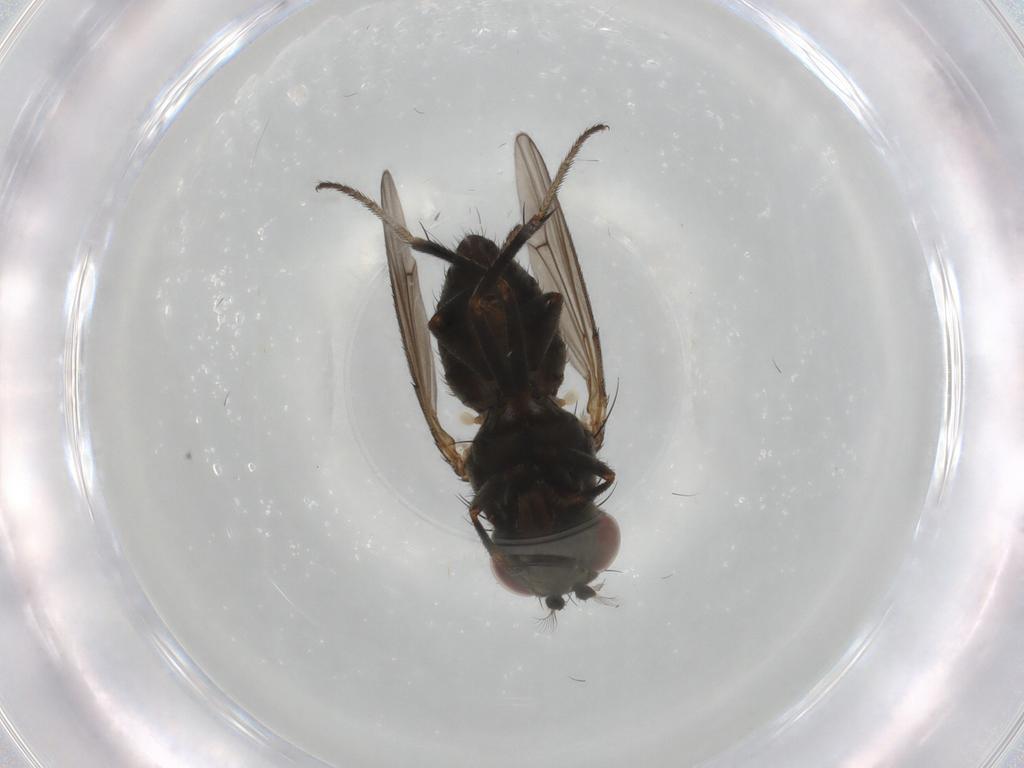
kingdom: Animalia
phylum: Arthropoda
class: Insecta
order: Diptera
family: Ephydridae
